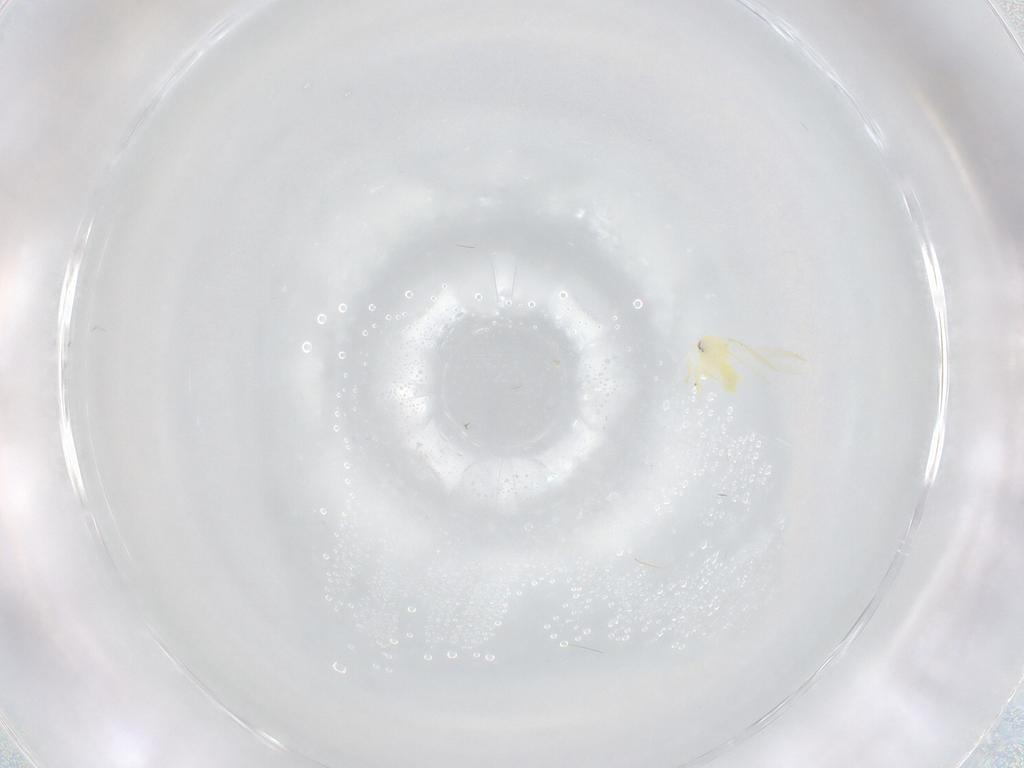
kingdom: Animalia
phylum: Arthropoda
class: Insecta
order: Hemiptera
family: Aleyrodidae
